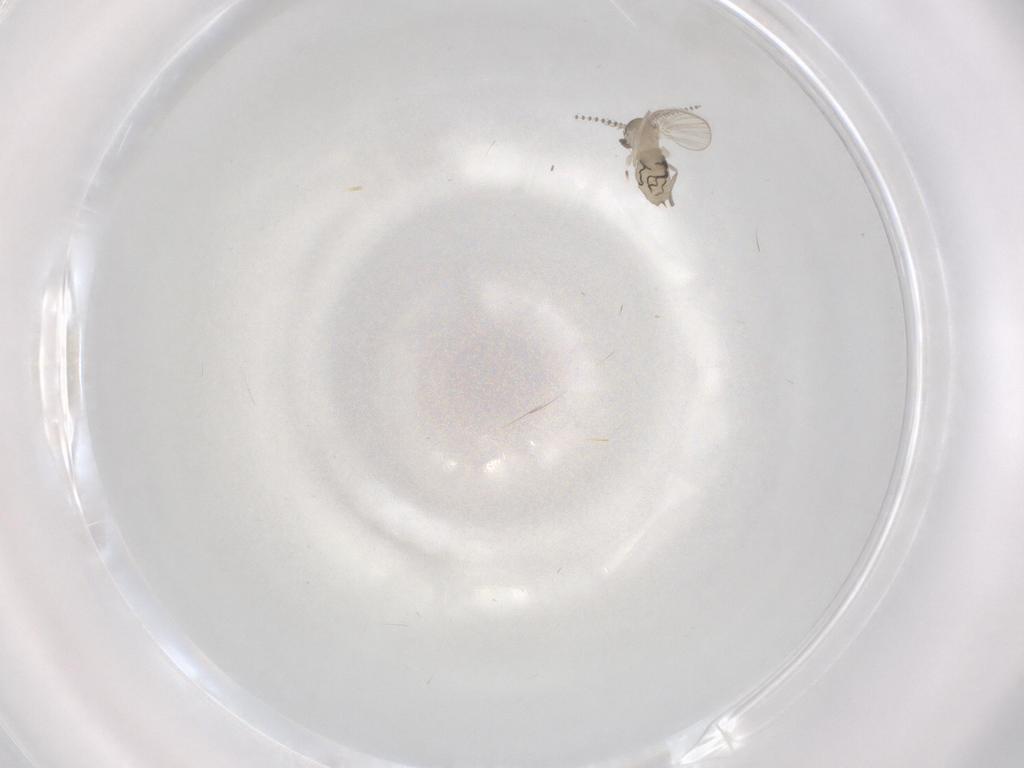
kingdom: Animalia
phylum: Arthropoda
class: Insecta
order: Diptera
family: Psychodidae
